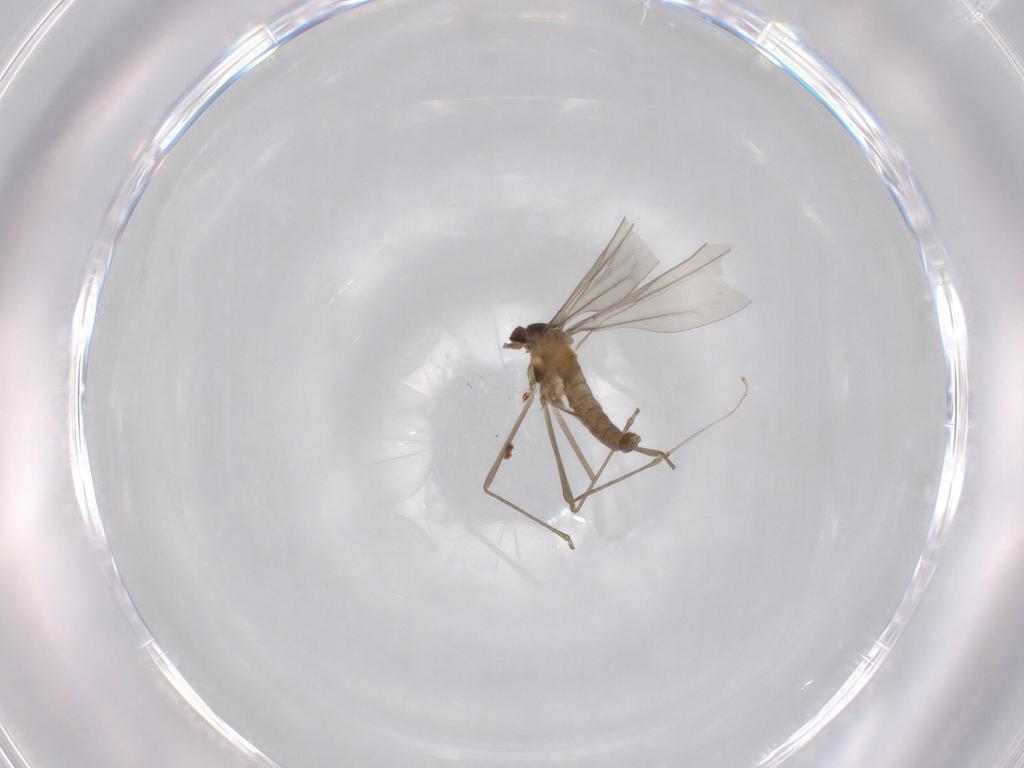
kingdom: Animalia
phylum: Arthropoda
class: Insecta
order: Diptera
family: Cecidomyiidae
